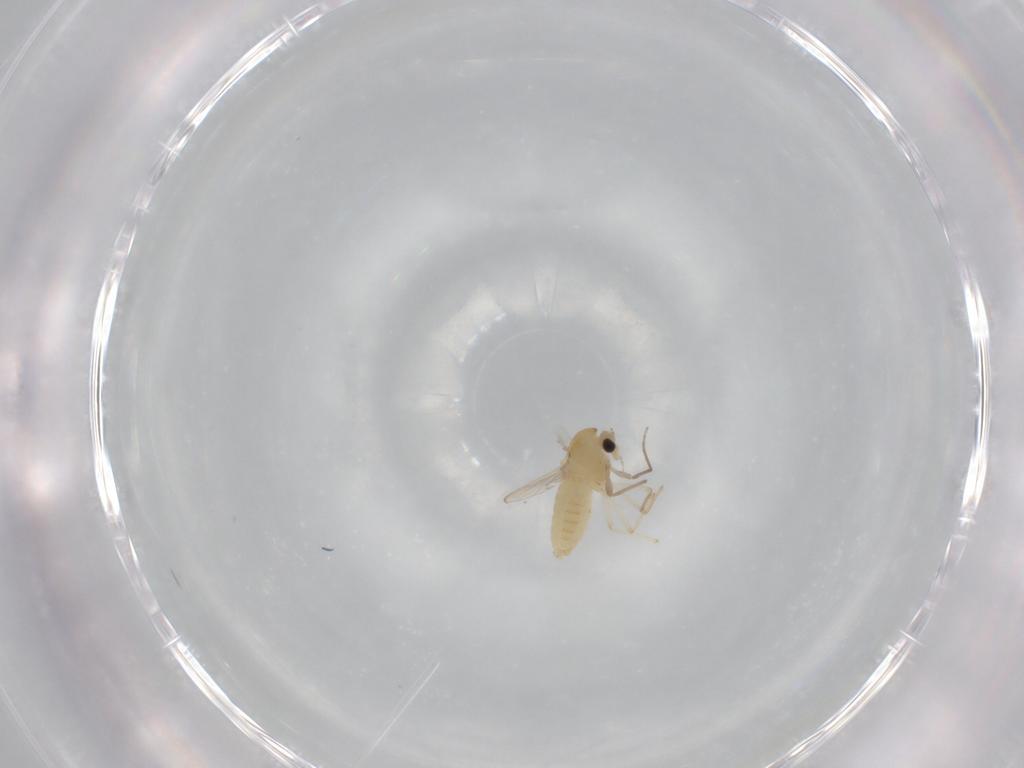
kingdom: Animalia
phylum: Arthropoda
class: Insecta
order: Diptera
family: Chironomidae
